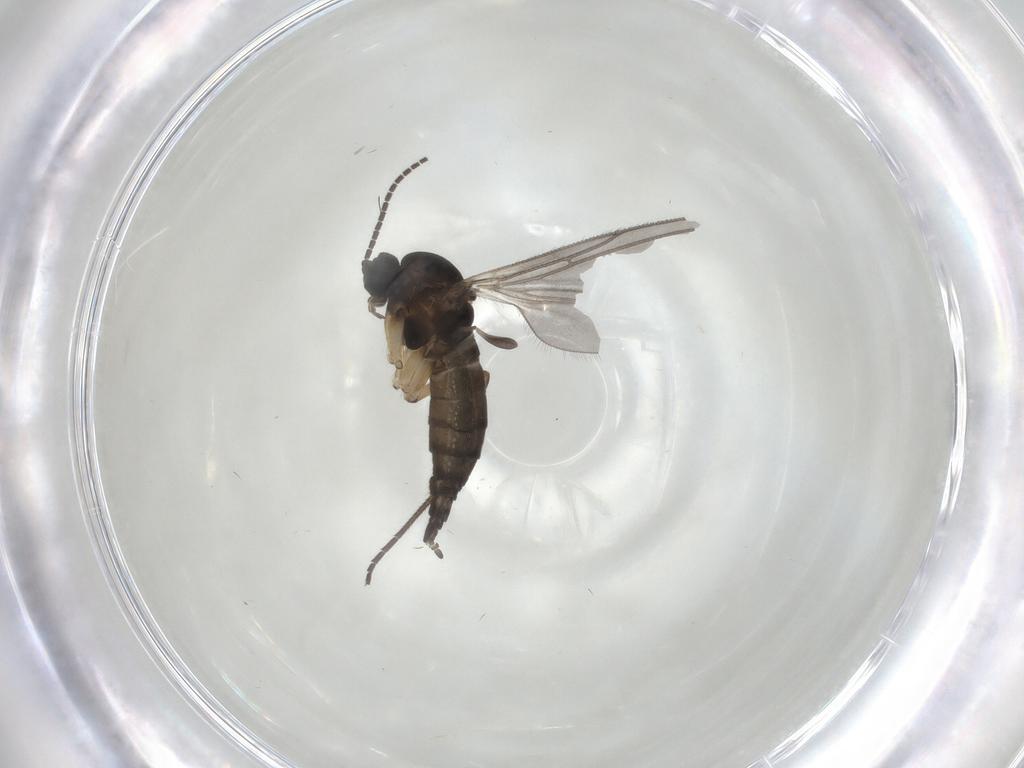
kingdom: Animalia
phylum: Arthropoda
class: Insecta
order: Diptera
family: Sciaridae
